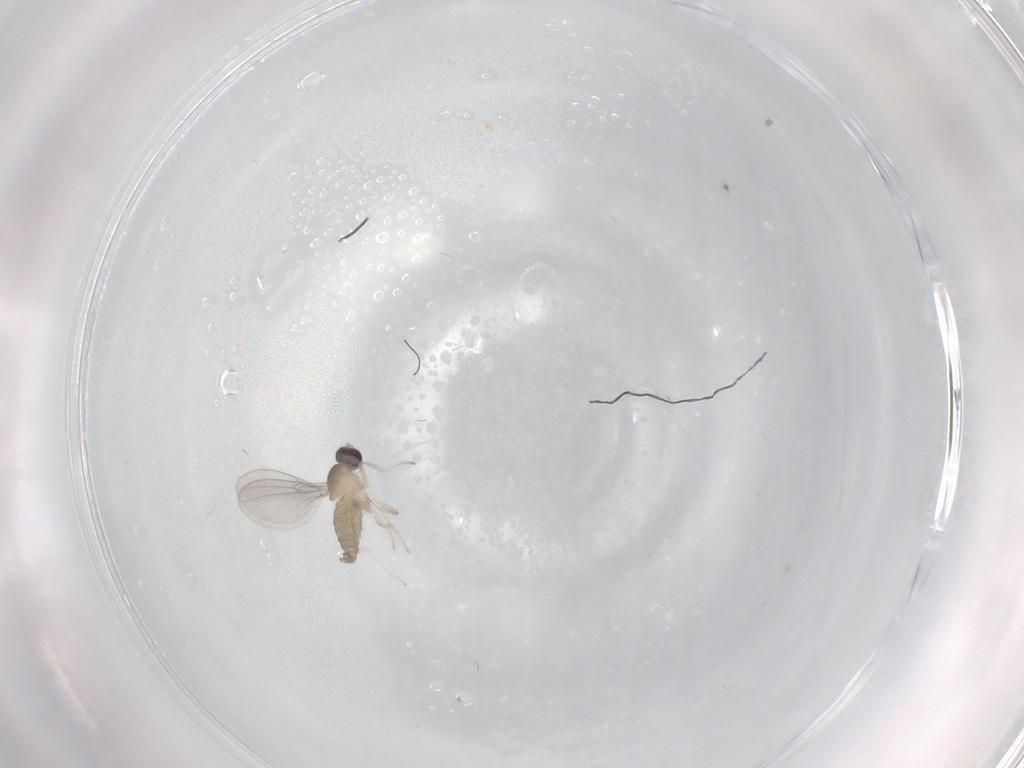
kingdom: Animalia
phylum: Arthropoda
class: Insecta
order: Diptera
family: Cecidomyiidae
